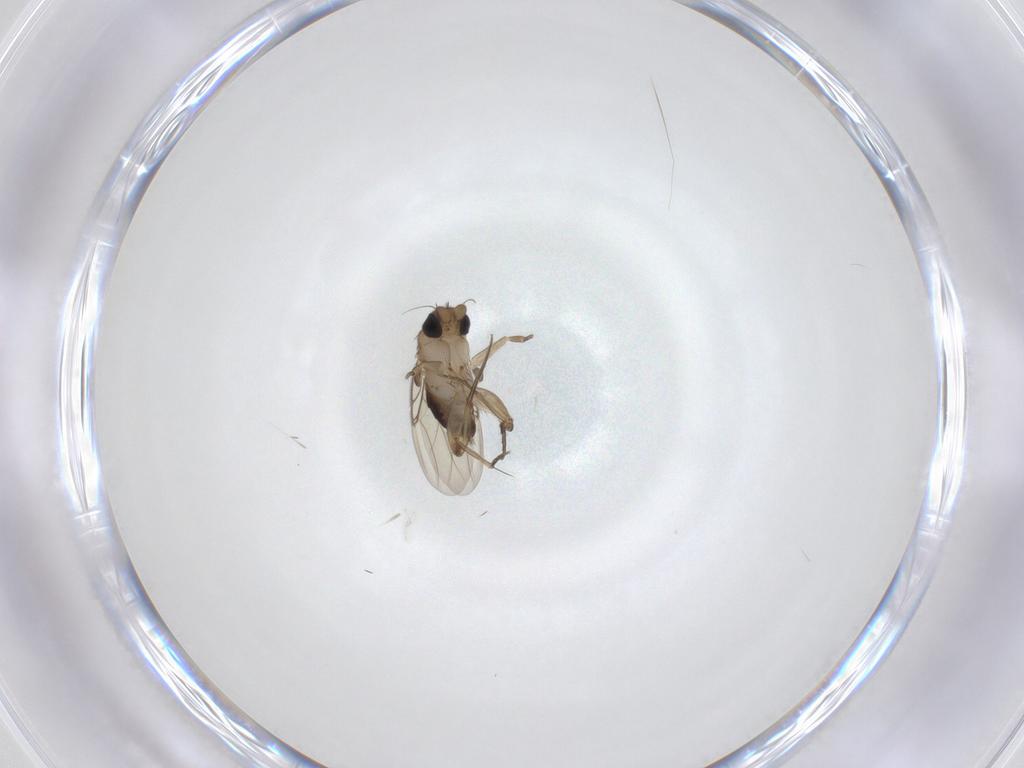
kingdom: Animalia
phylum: Arthropoda
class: Insecta
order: Diptera
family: Phoridae
